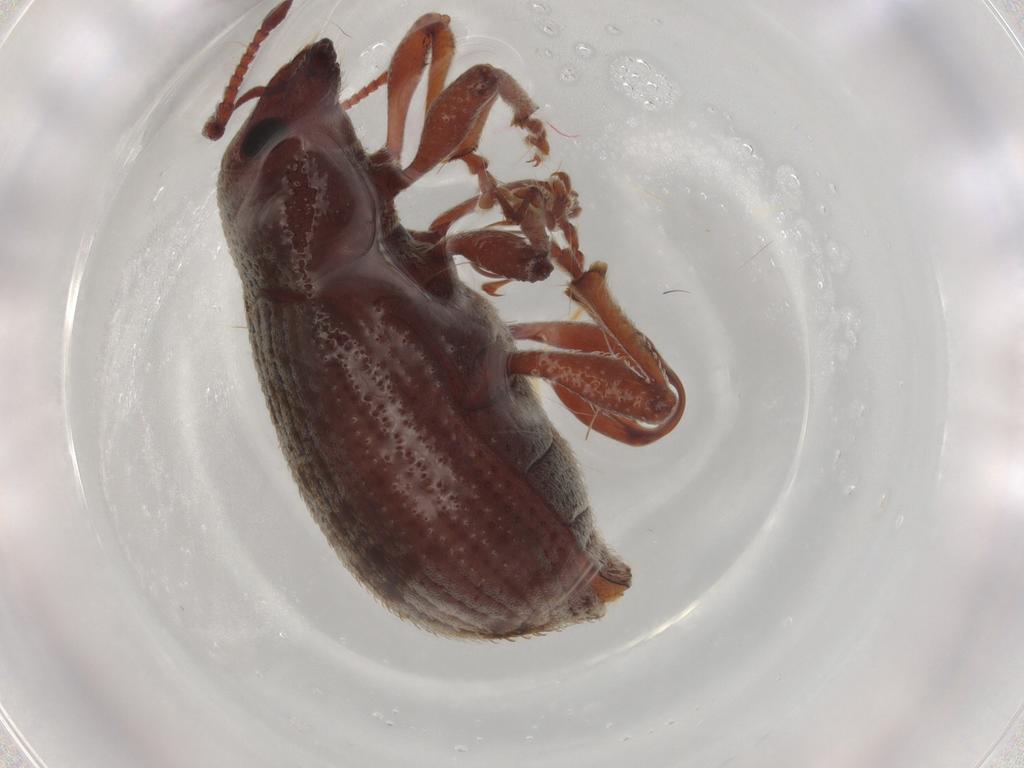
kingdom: Animalia
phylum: Arthropoda
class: Insecta
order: Coleoptera
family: Curculionidae
